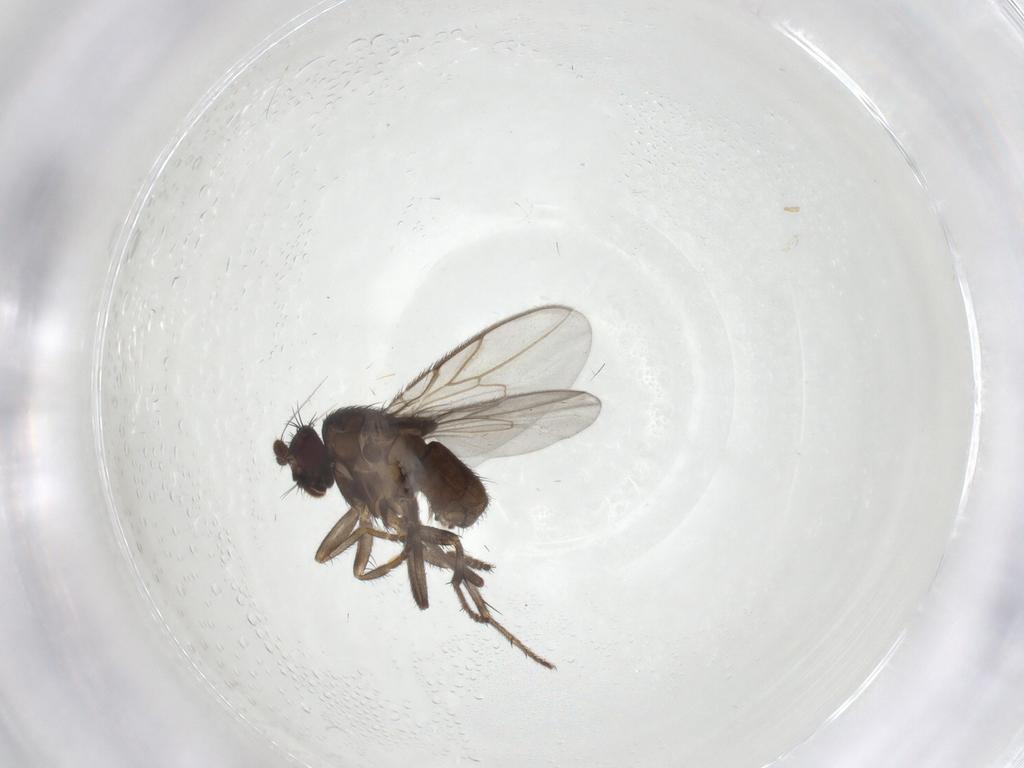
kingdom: Animalia
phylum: Arthropoda
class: Insecta
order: Diptera
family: Sphaeroceridae
